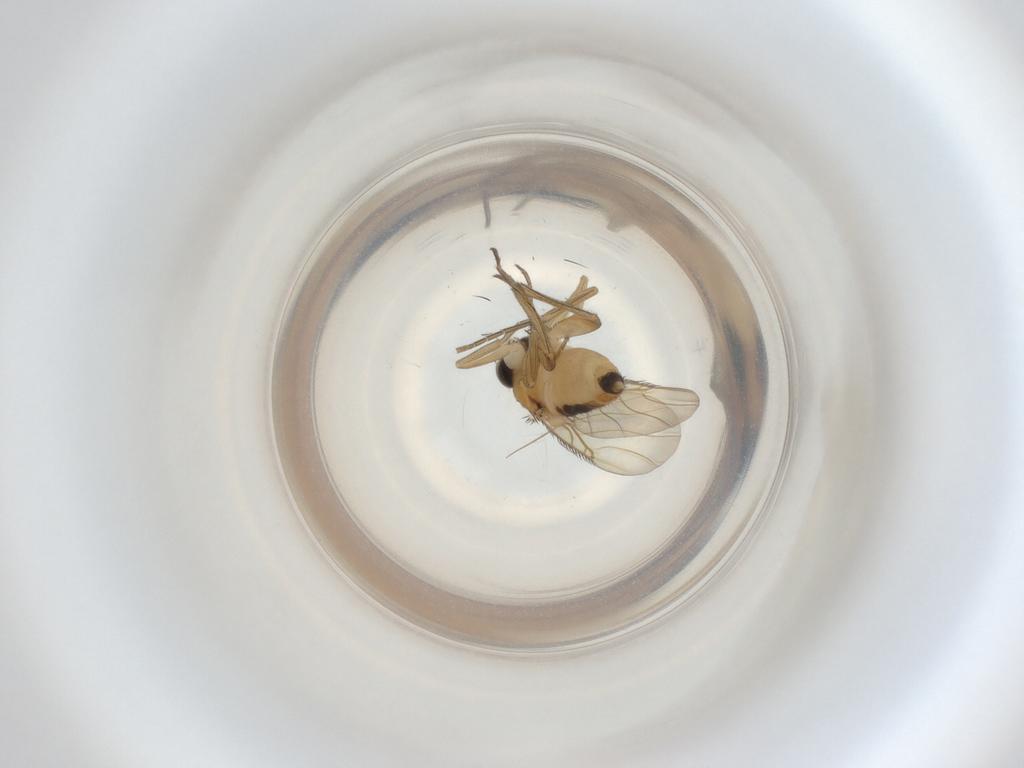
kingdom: Animalia
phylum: Arthropoda
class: Insecta
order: Diptera
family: Phoridae
